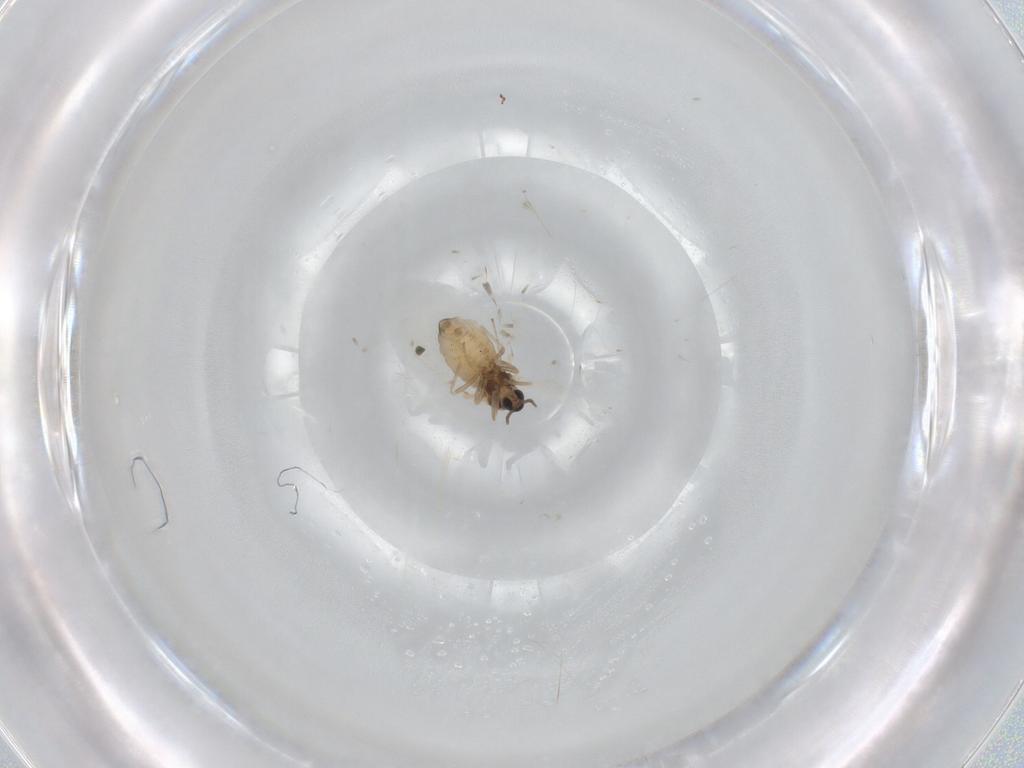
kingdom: Animalia
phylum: Arthropoda
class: Insecta
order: Diptera
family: Cecidomyiidae
